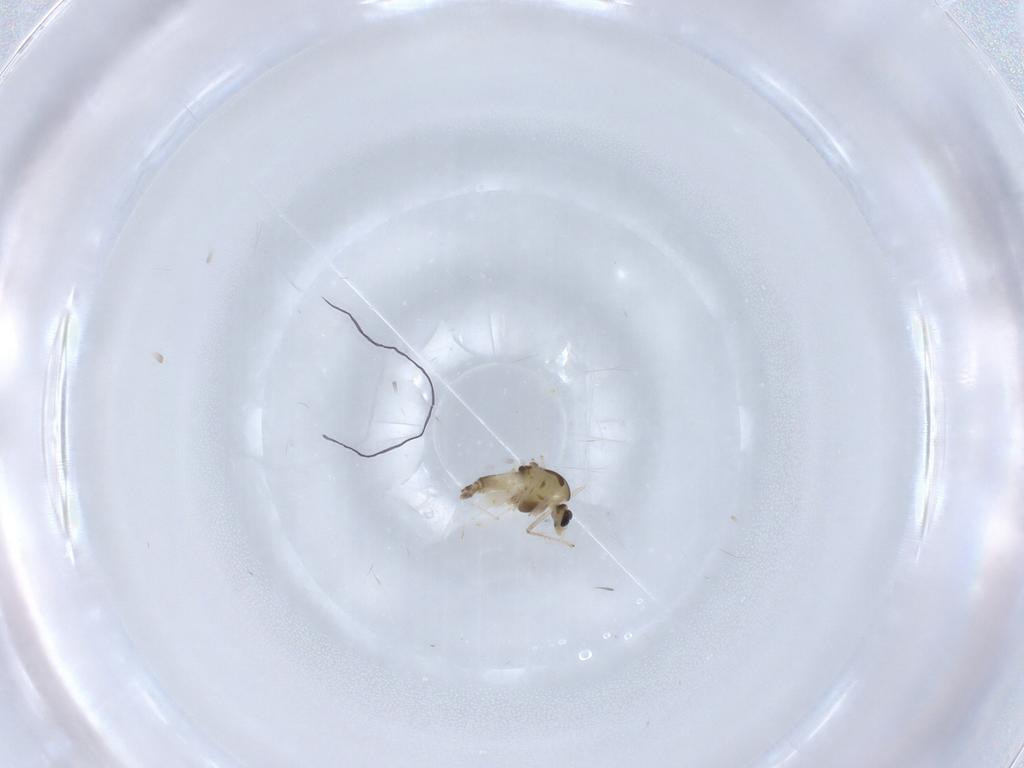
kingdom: Animalia
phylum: Arthropoda
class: Insecta
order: Diptera
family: Chironomidae
